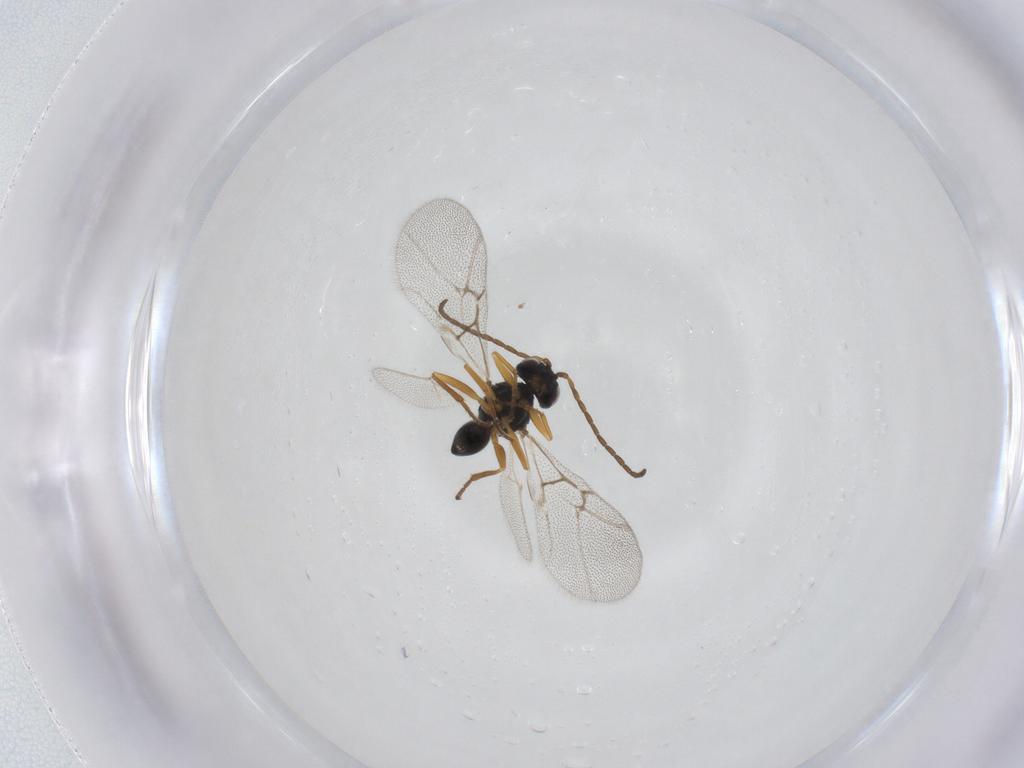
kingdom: Animalia
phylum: Arthropoda
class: Insecta
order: Hymenoptera
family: Cynipidae
